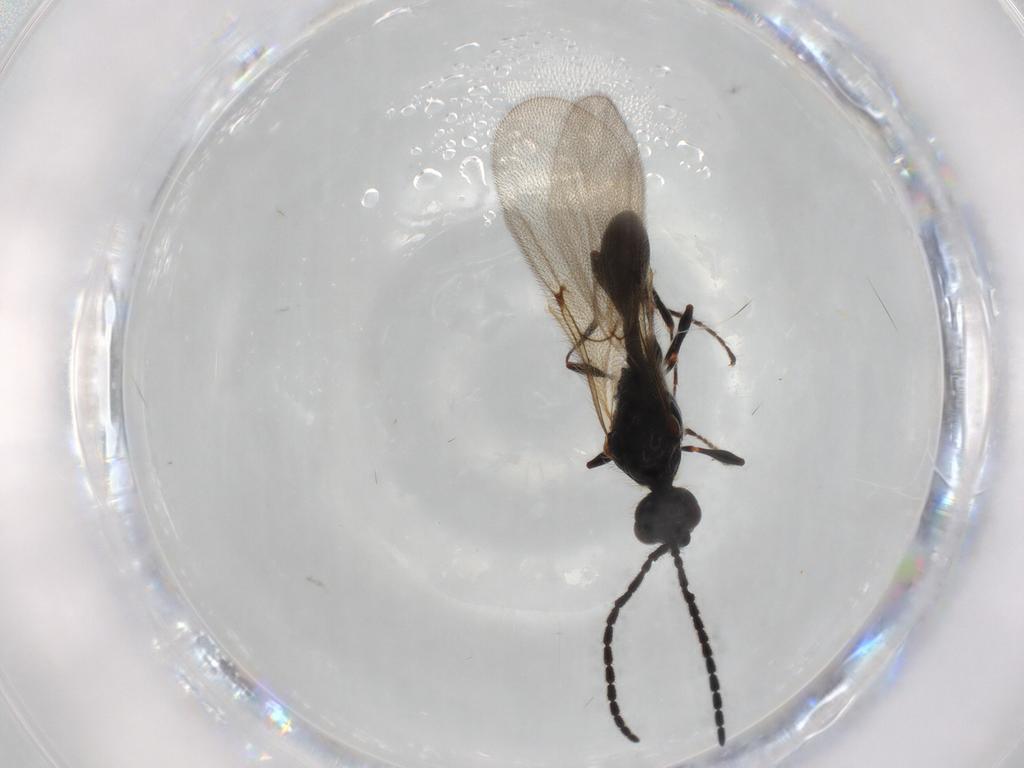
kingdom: Animalia
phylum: Arthropoda
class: Insecta
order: Hymenoptera
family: Diapriidae
